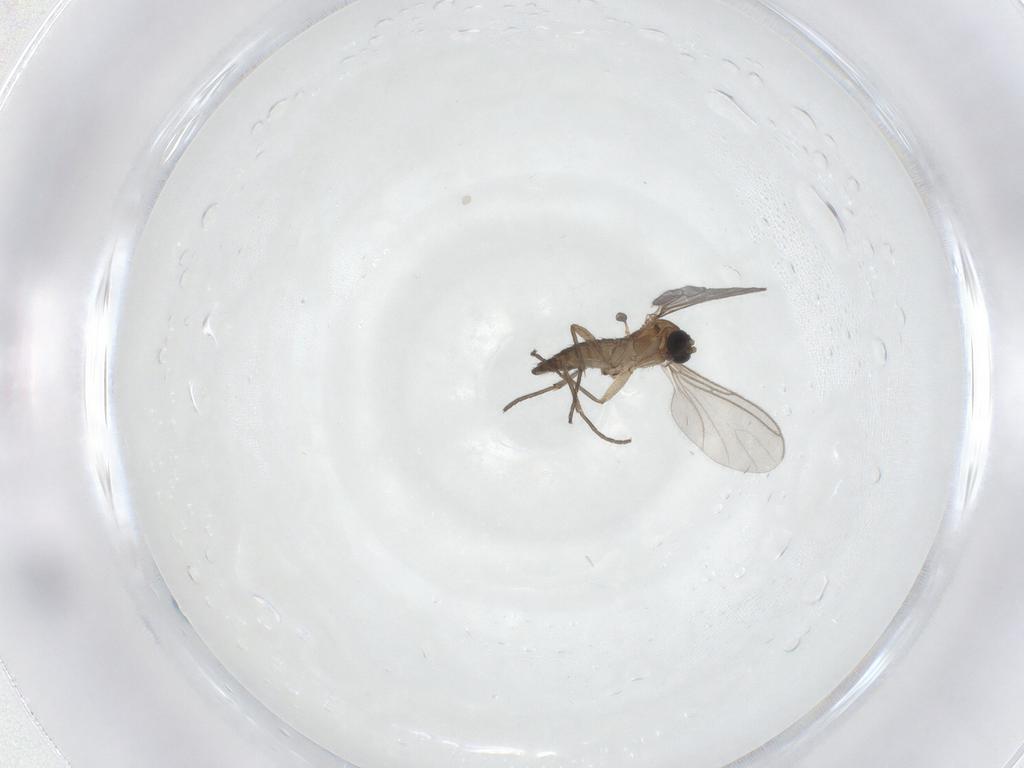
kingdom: Animalia
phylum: Arthropoda
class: Insecta
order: Diptera
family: Sciaridae
